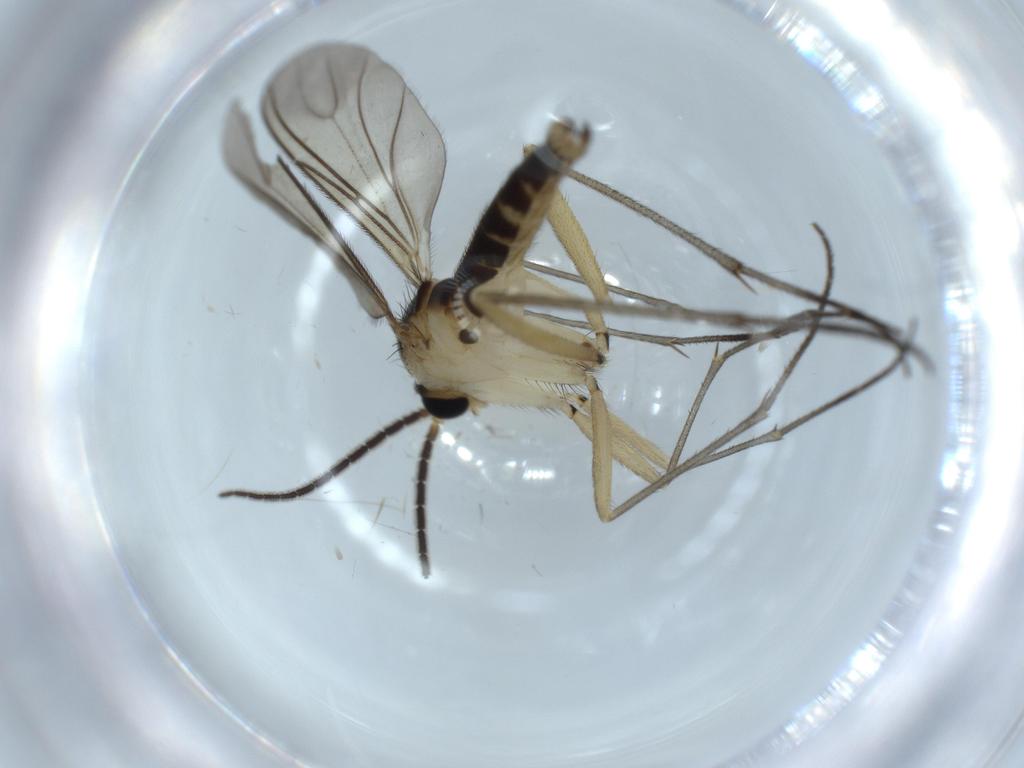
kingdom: Animalia
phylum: Arthropoda
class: Insecta
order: Diptera
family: Sciaridae
